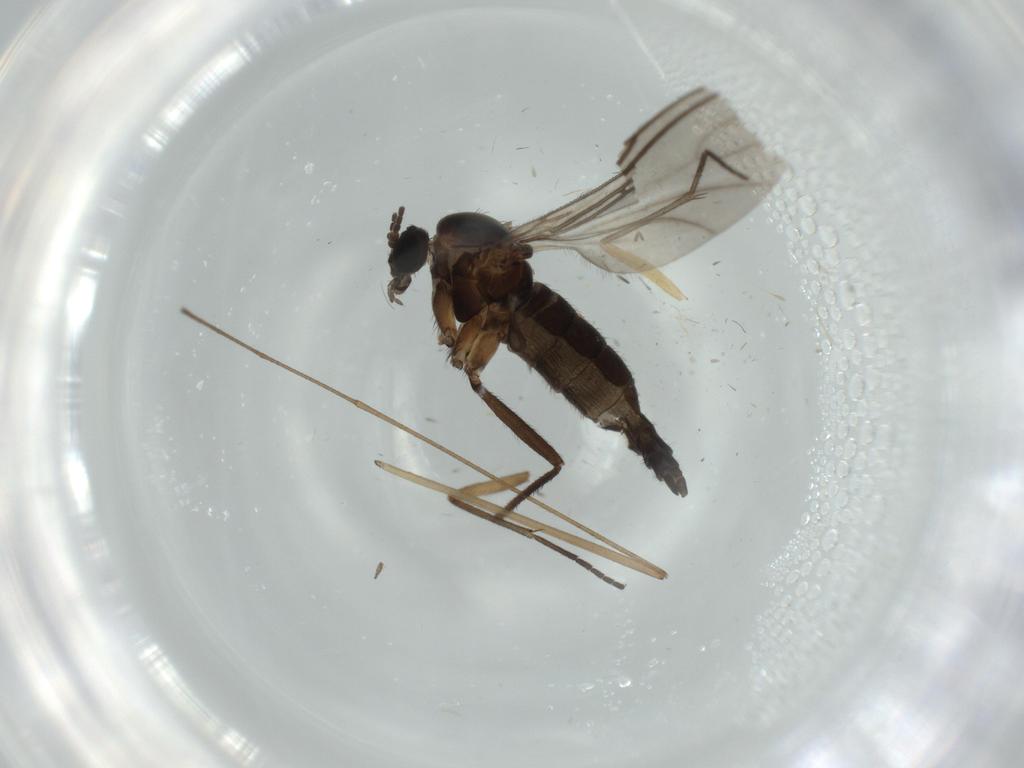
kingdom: Animalia
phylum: Arthropoda
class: Insecta
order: Diptera
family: Sciaridae
